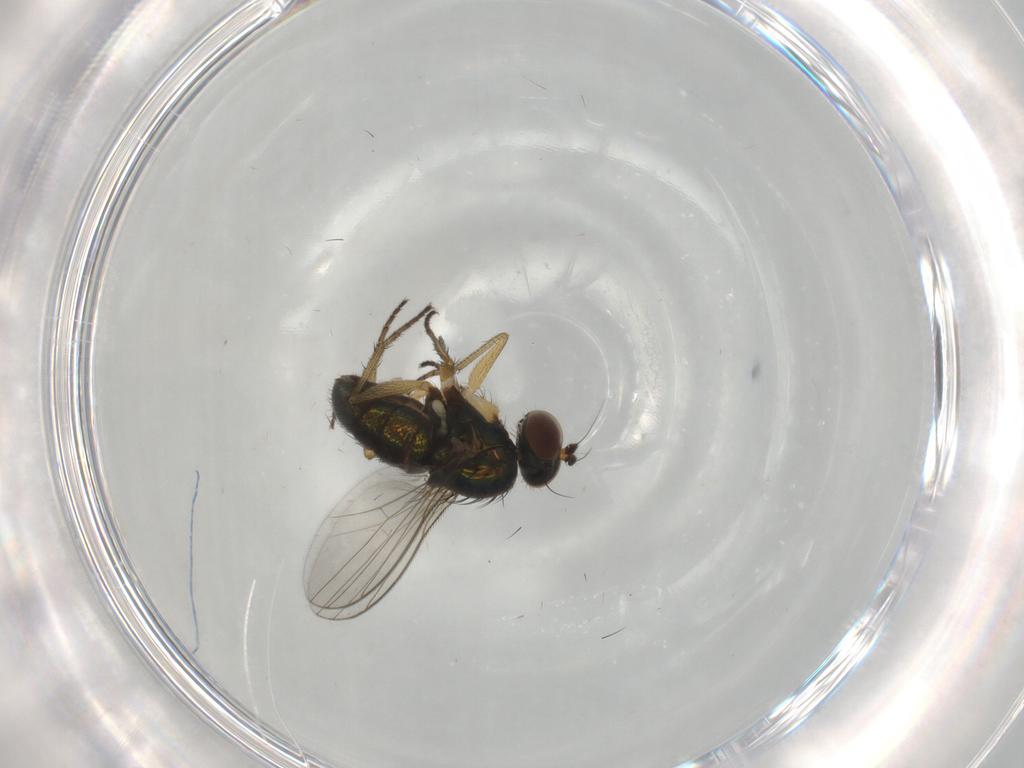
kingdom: Animalia
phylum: Arthropoda
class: Insecta
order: Diptera
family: Dolichopodidae
